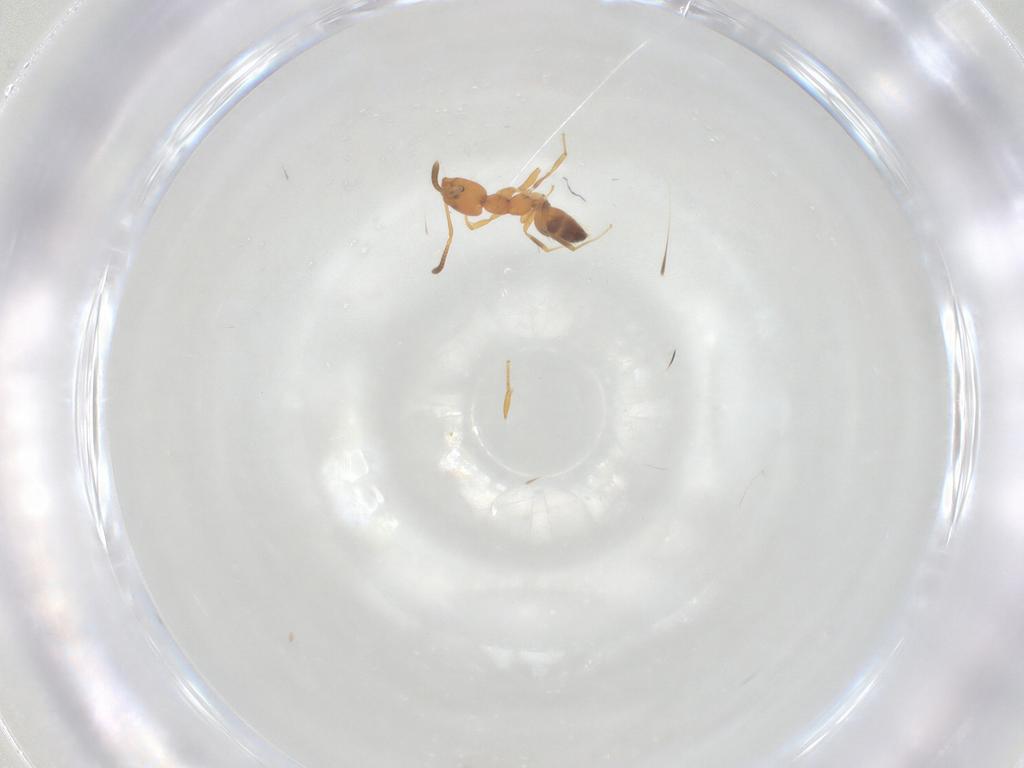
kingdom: Animalia
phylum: Arthropoda
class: Insecta
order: Hymenoptera
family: Formicidae
